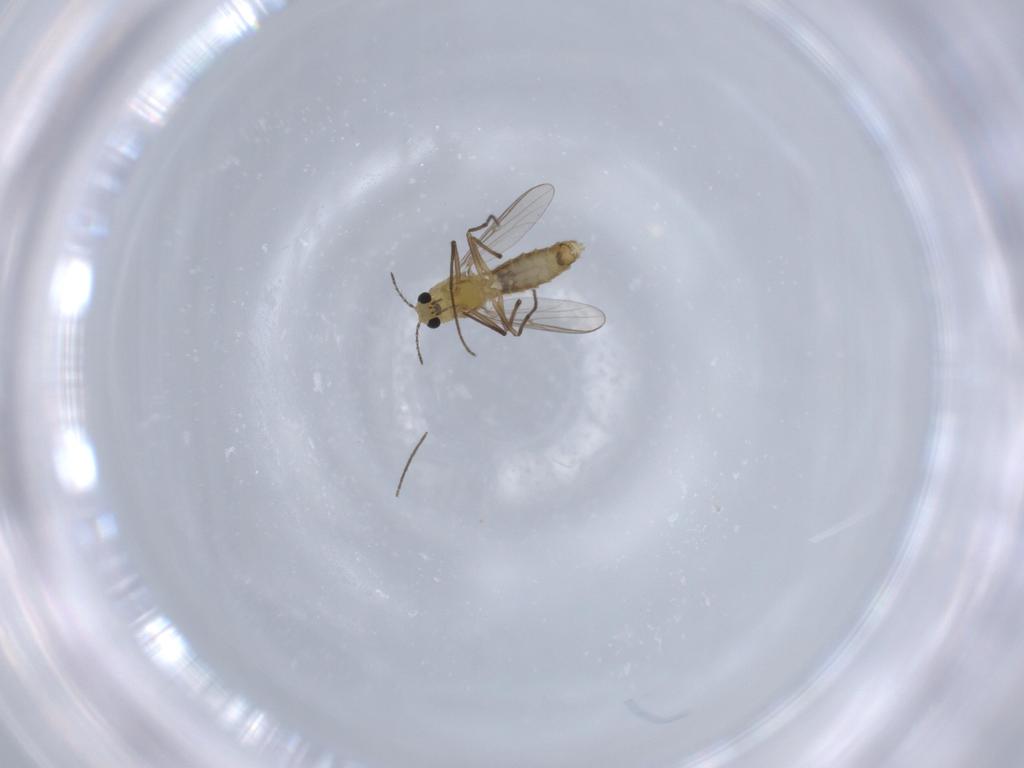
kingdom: Animalia
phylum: Arthropoda
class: Insecta
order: Diptera
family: Chironomidae
